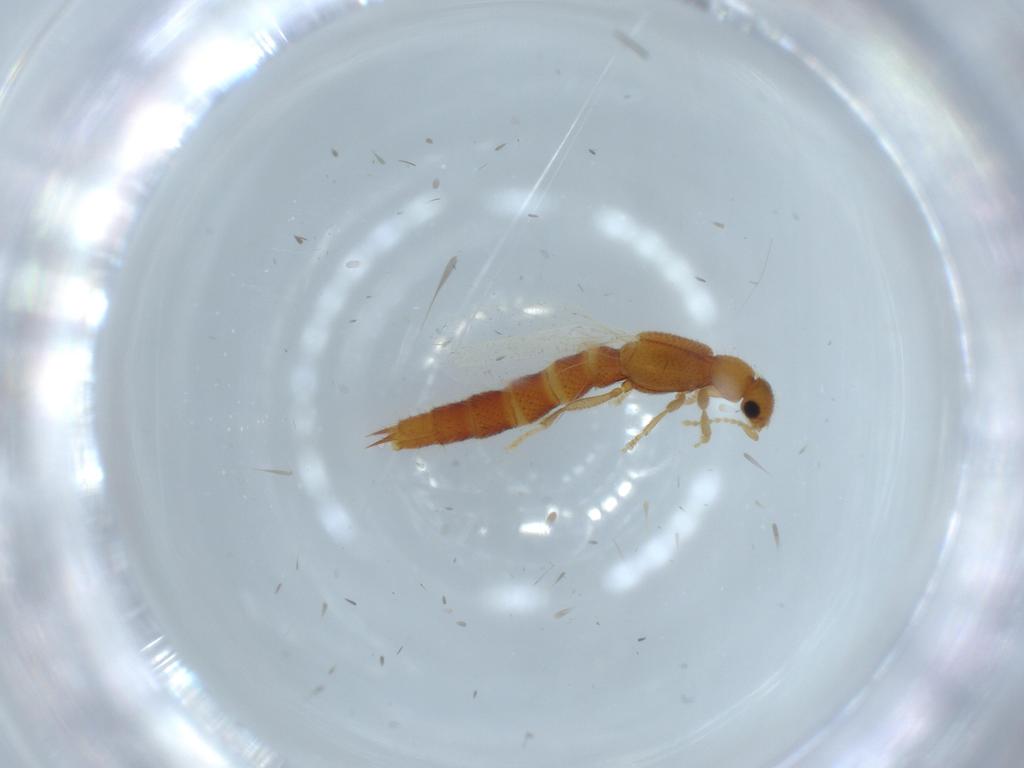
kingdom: Animalia
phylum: Arthropoda
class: Insecta
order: Coleoptera
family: Staphylinidae
